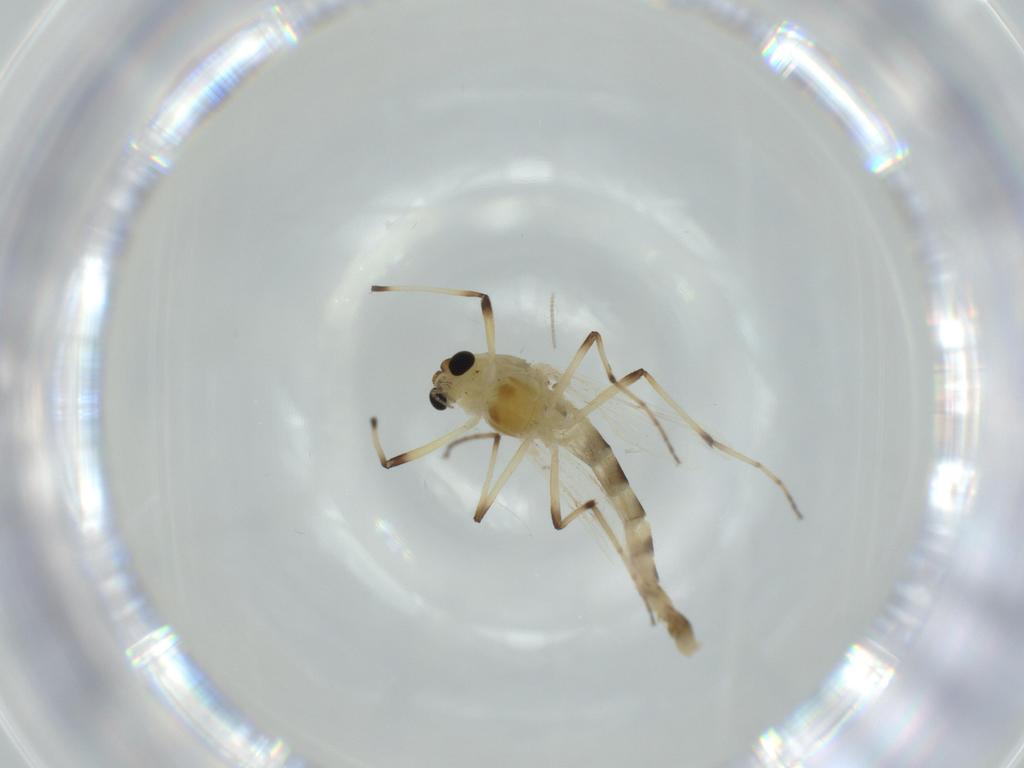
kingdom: Animalia
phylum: Arthropoda
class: Insecta
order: Diptera
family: Chironomidae
